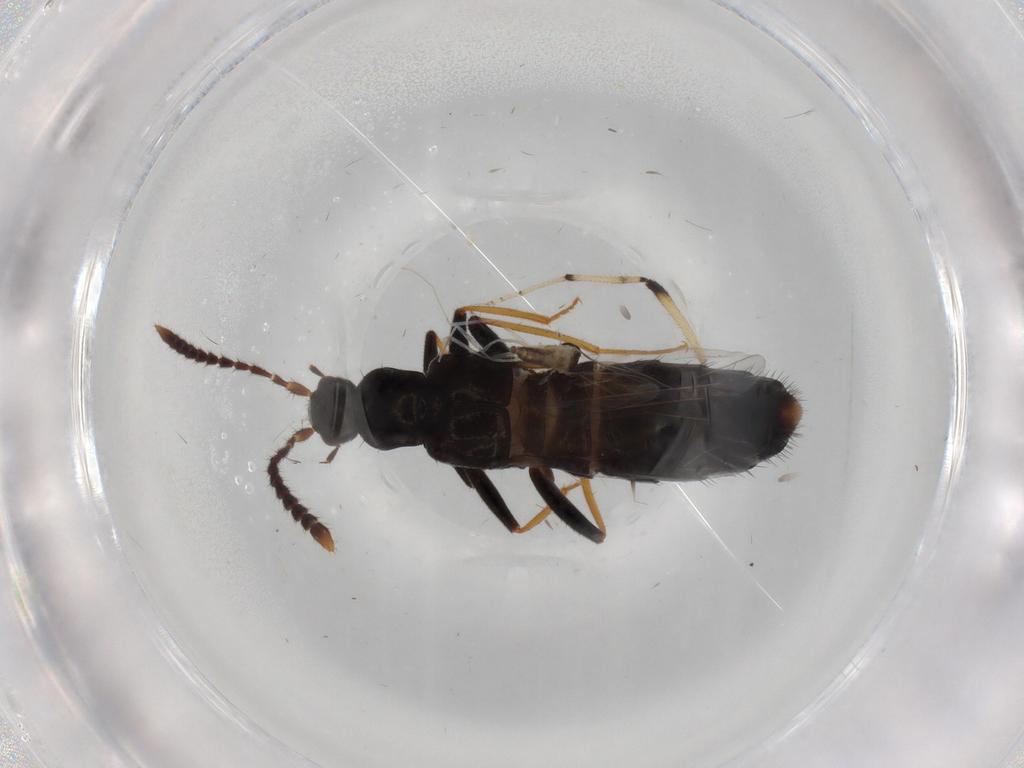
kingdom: Animalia
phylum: Arthropoda
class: Insecta
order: Coleoptera
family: Staphylinidae
